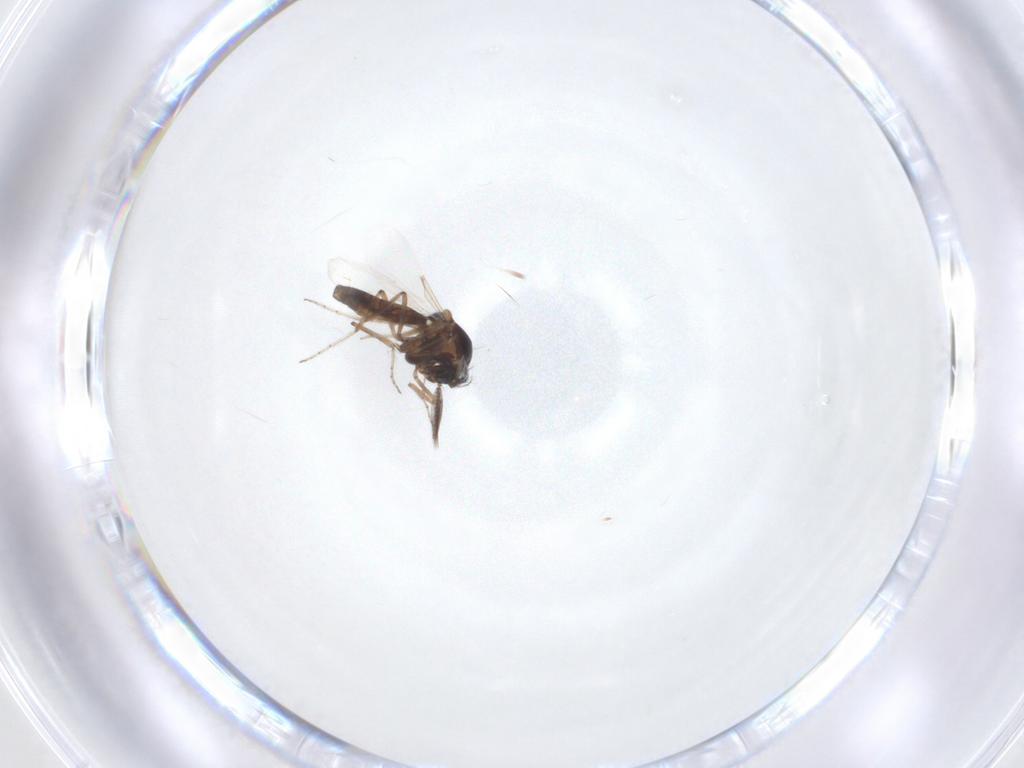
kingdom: Animalia
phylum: Arthropoda
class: Insecta
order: Diptera
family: Ceratopogonidae
